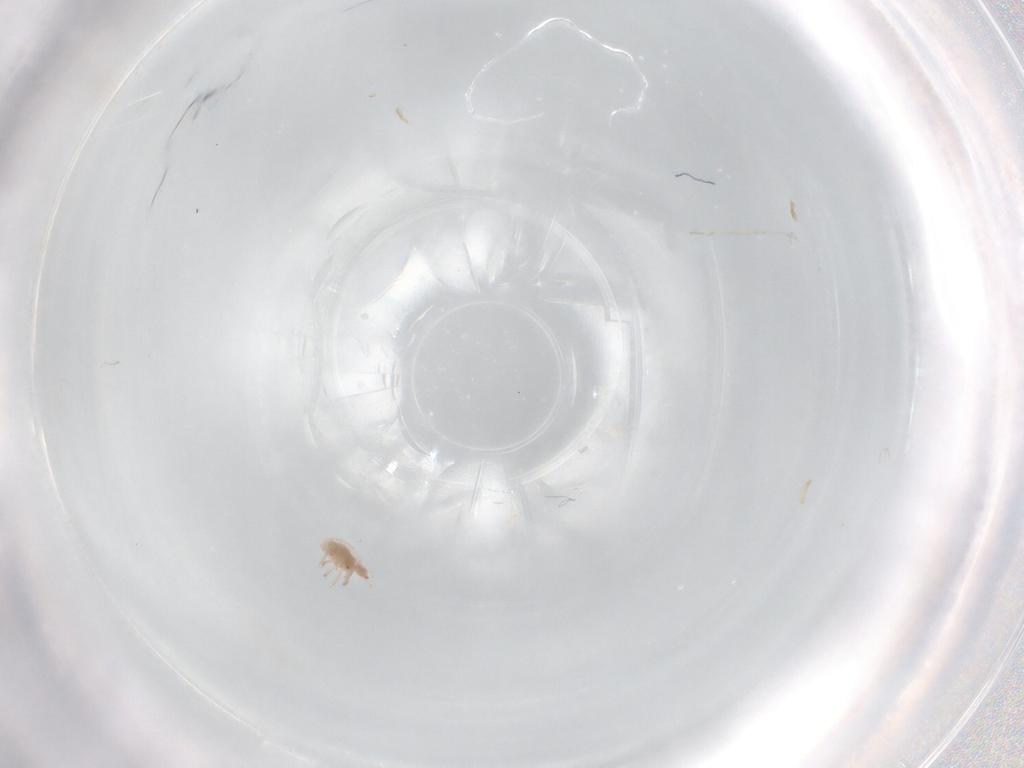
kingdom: Animalia
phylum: Arthropoda
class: Arachnida
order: Trombidiformes
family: Bdellidae
